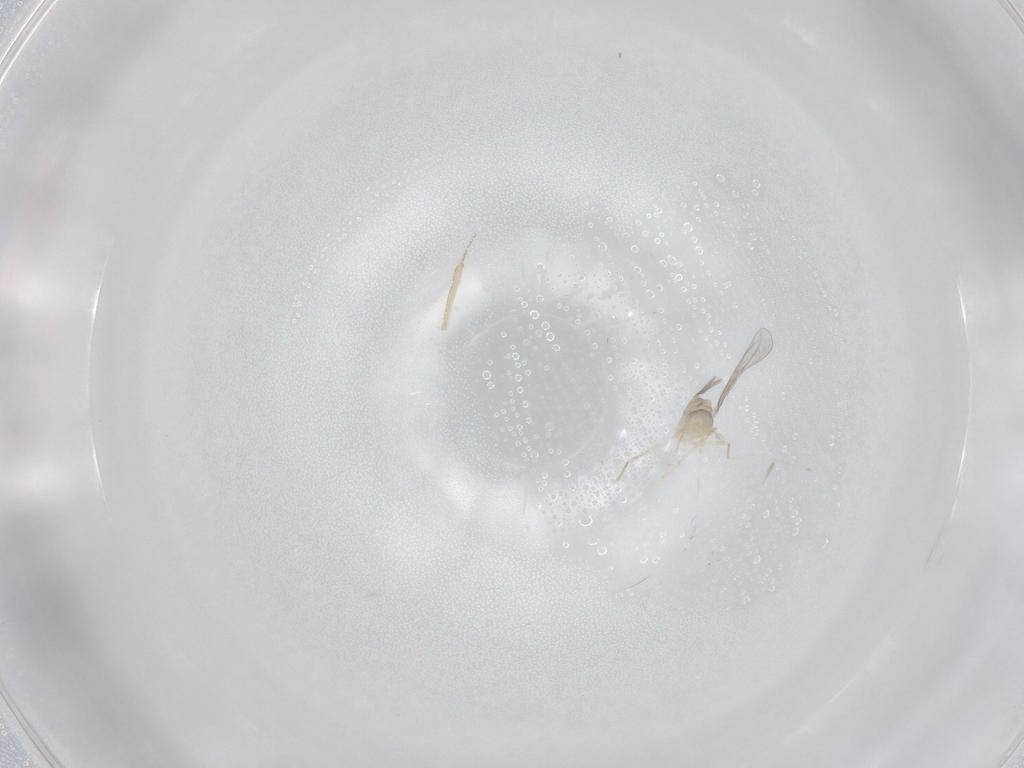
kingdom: Animalia
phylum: Arthropoda
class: Insecta
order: Diptera
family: Cecidomyiidae
